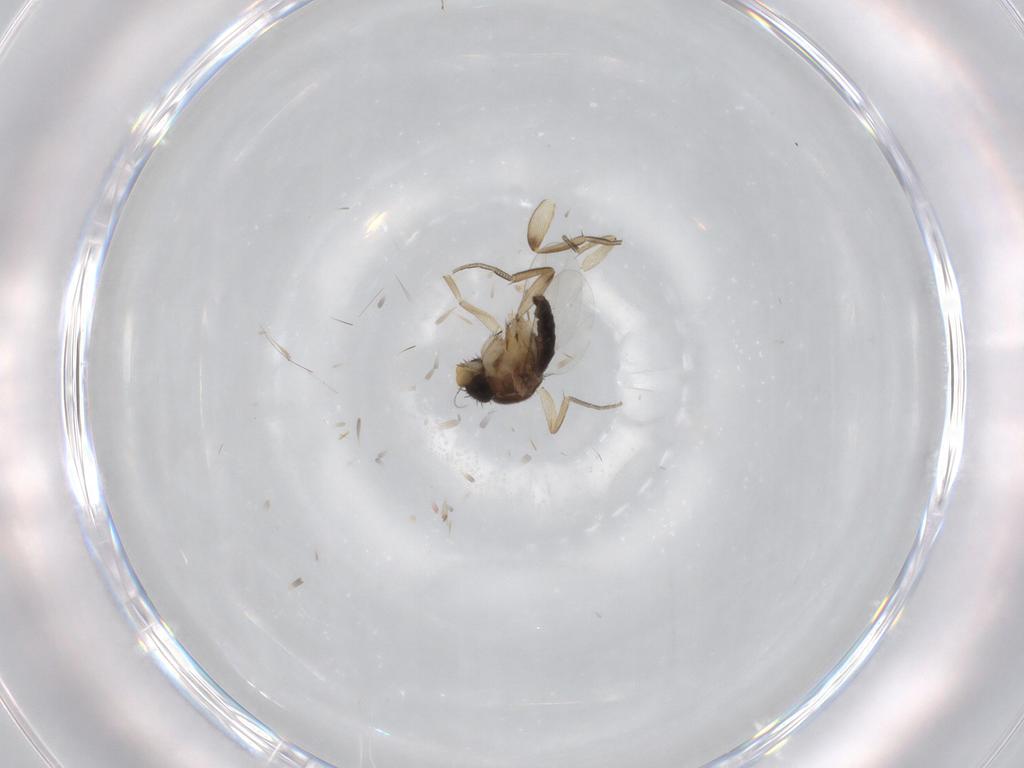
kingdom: Animalia
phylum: Arthropoda
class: Insecta
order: Diptera
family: Phoridae
